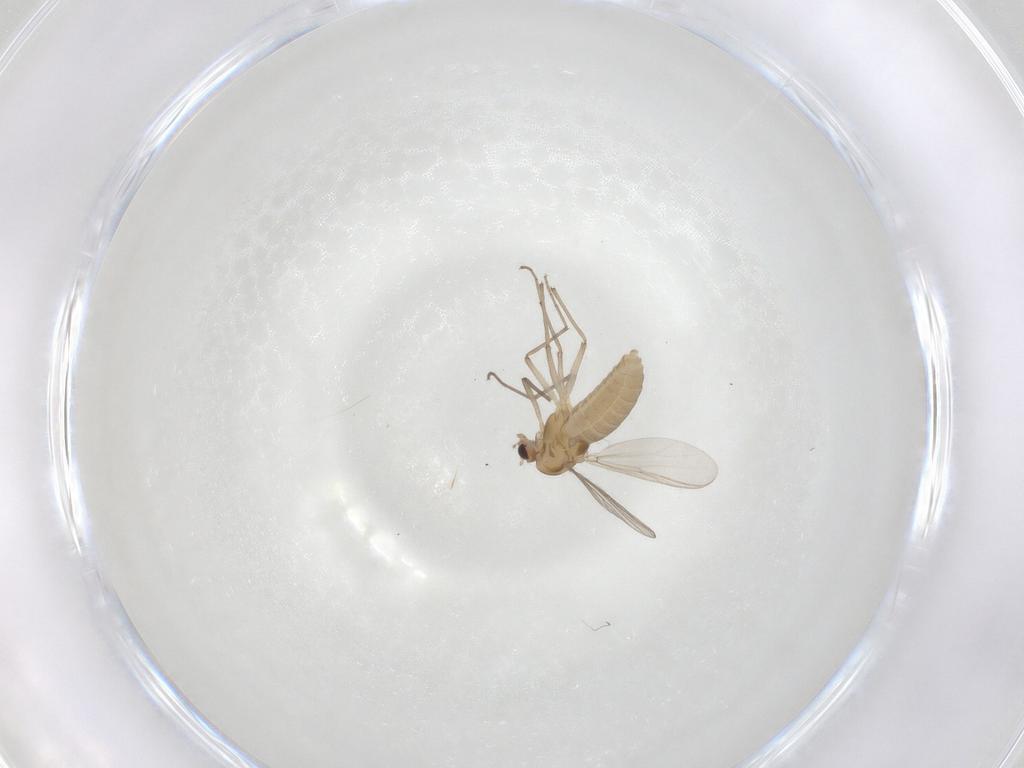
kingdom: Animalia
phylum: Arthropoda
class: Insecta
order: Diptera
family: Chironomidae
